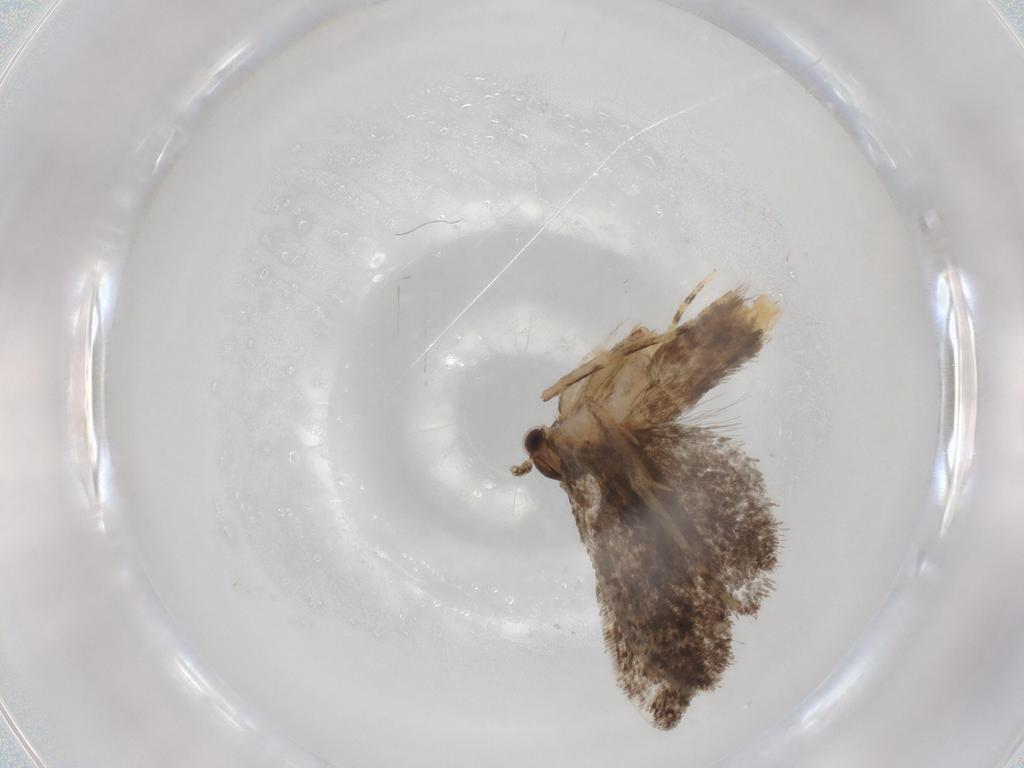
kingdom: Animalia
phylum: Arthropoda
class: Insecta
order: Lepidoptera
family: Dryadaulidae
